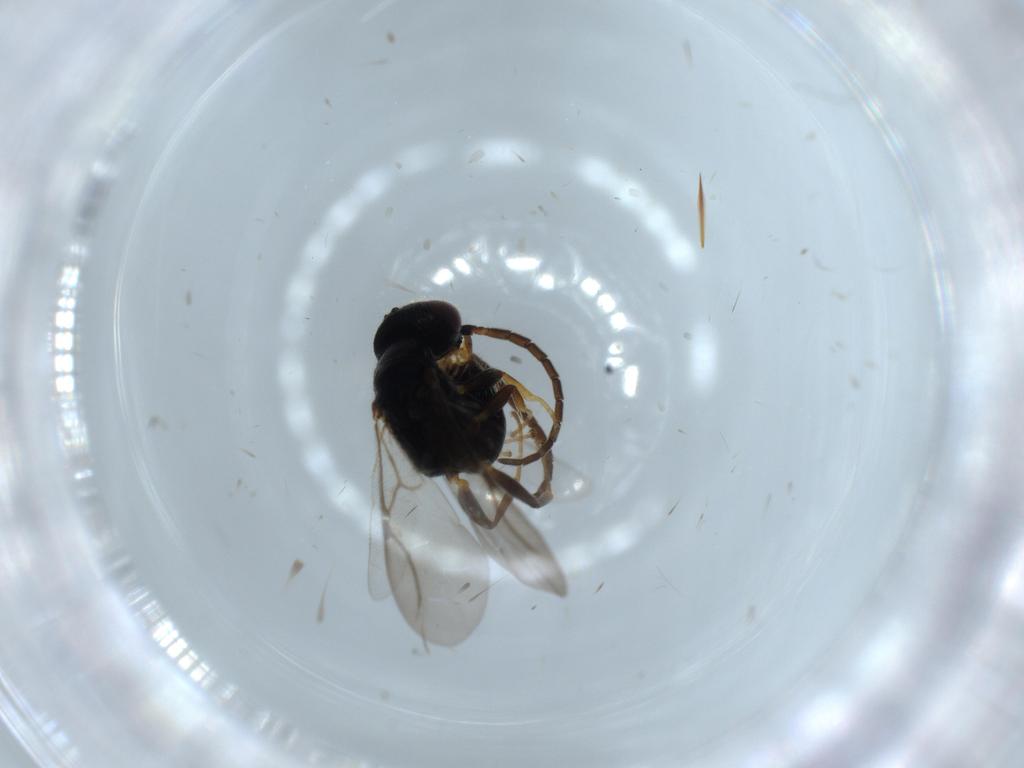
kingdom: Animalia
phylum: Arthropoda
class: Insecta
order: Hymenoptera
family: Bethylidae
